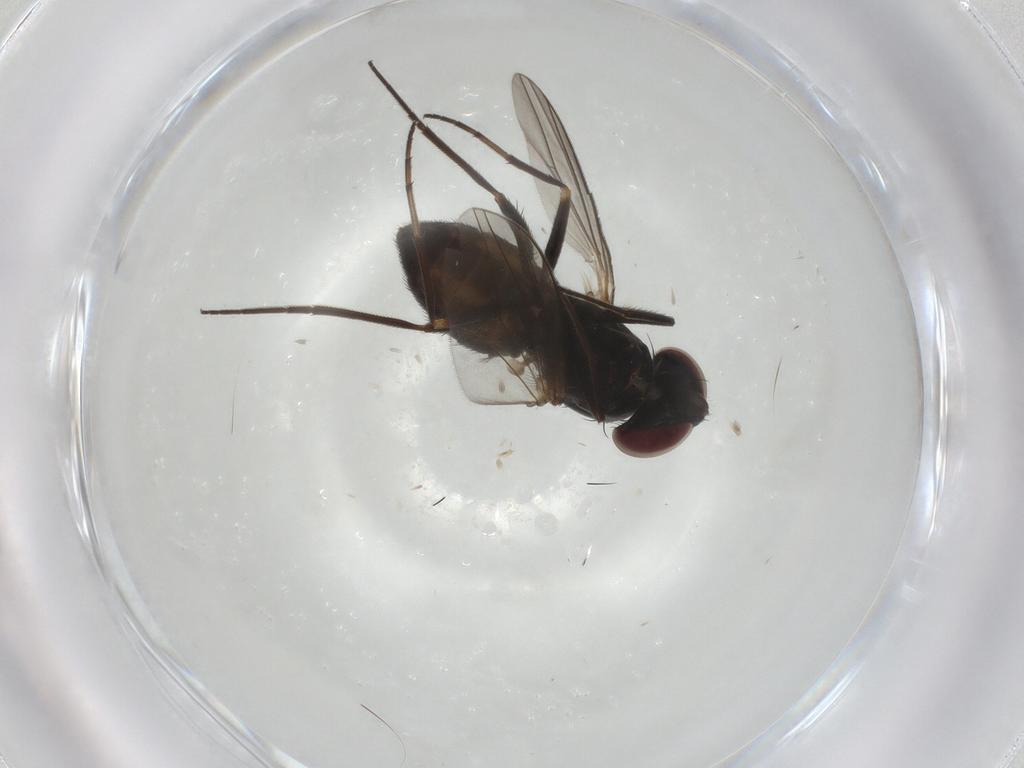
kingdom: Animalia
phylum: Arthropoda
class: Insecta
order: Diptera
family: Dolichopodidae
